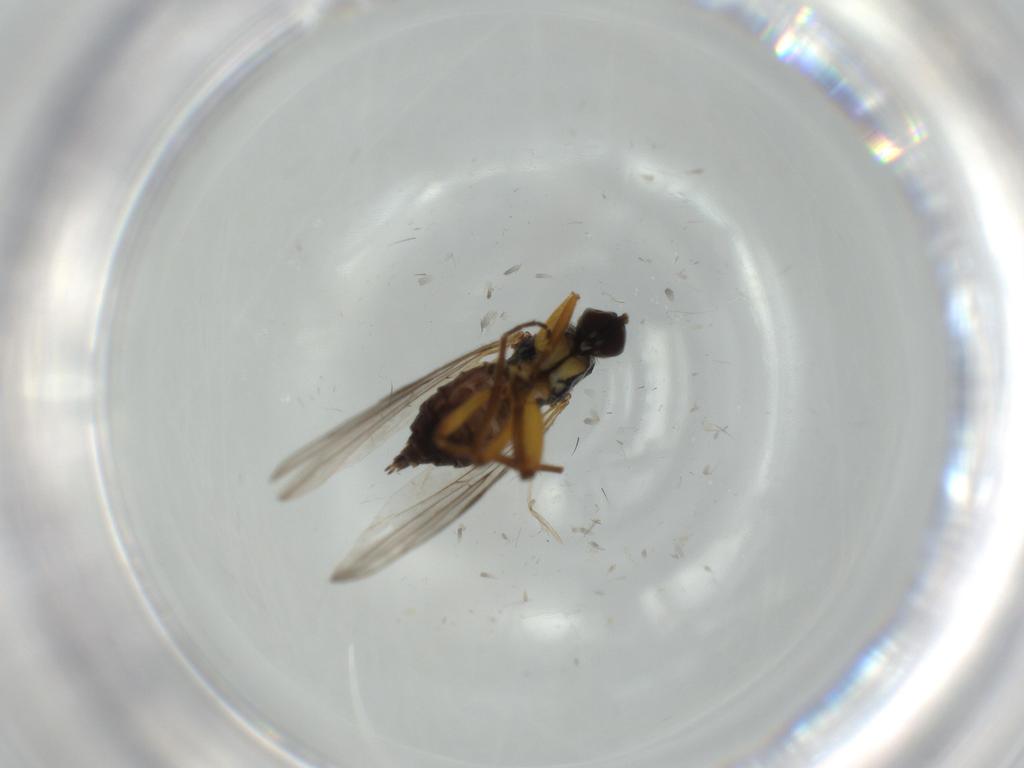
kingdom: Animalia
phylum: Arthropoda
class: Insecta
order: Diptera
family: Hybotidae
